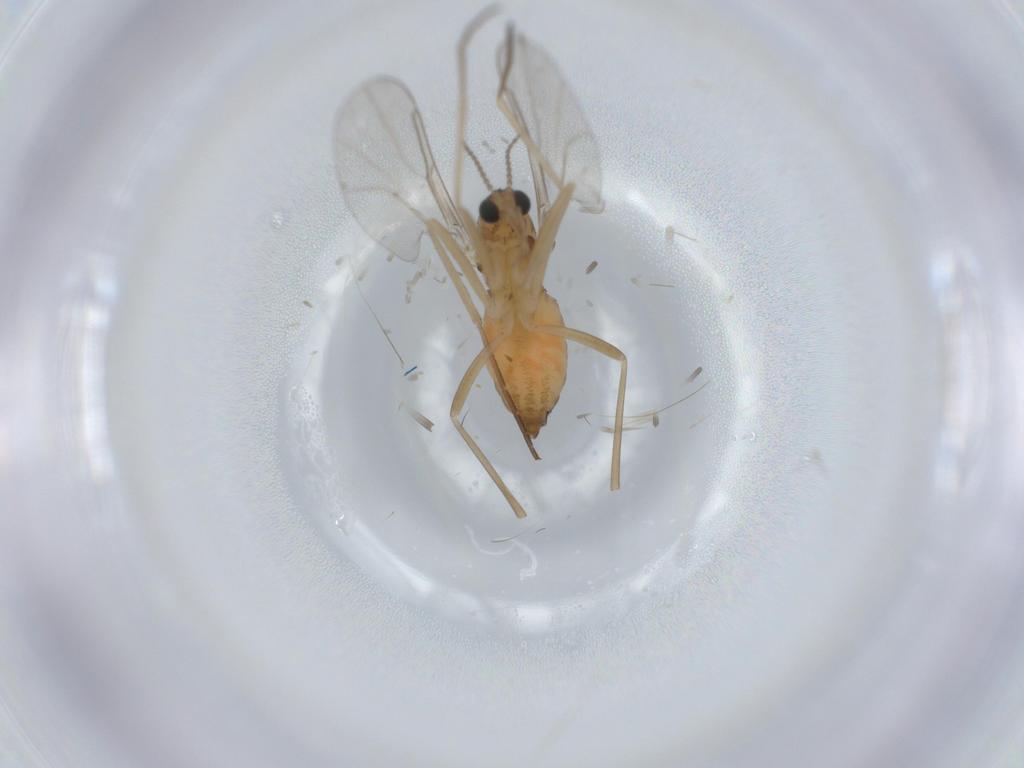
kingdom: Animalia
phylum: Arthropoda
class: Insecta
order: Diptera
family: Cecidomyiidae
